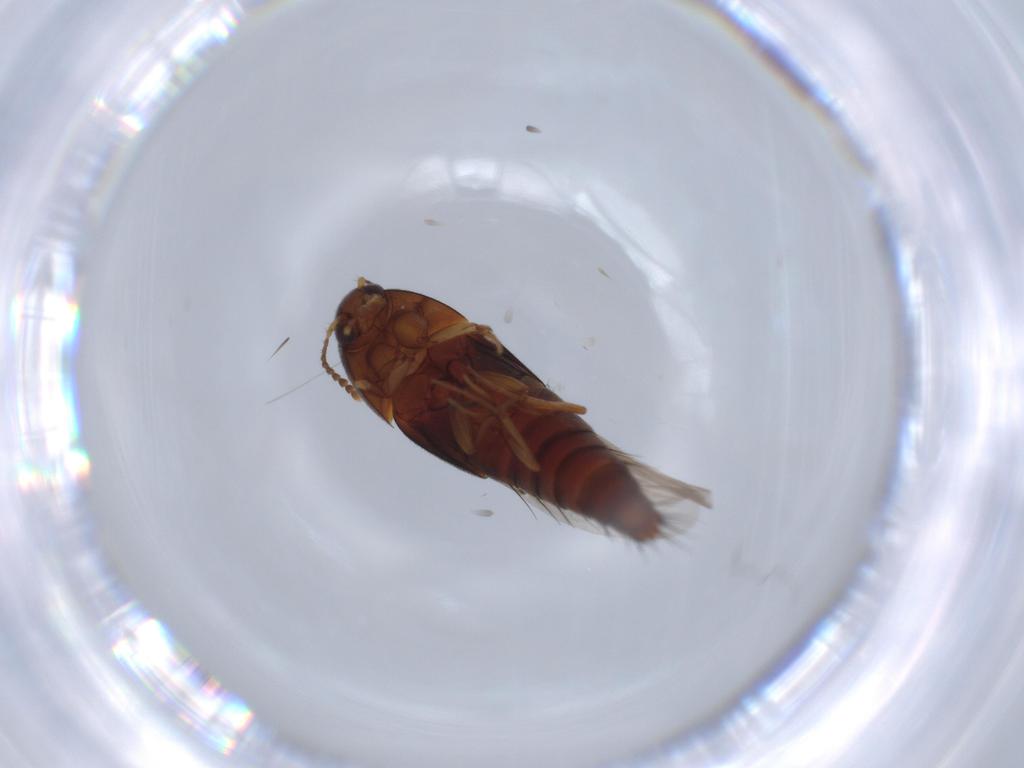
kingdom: Animalia
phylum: Arthropoda
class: Insecta
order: Coleoptera
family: Staphylinidae
